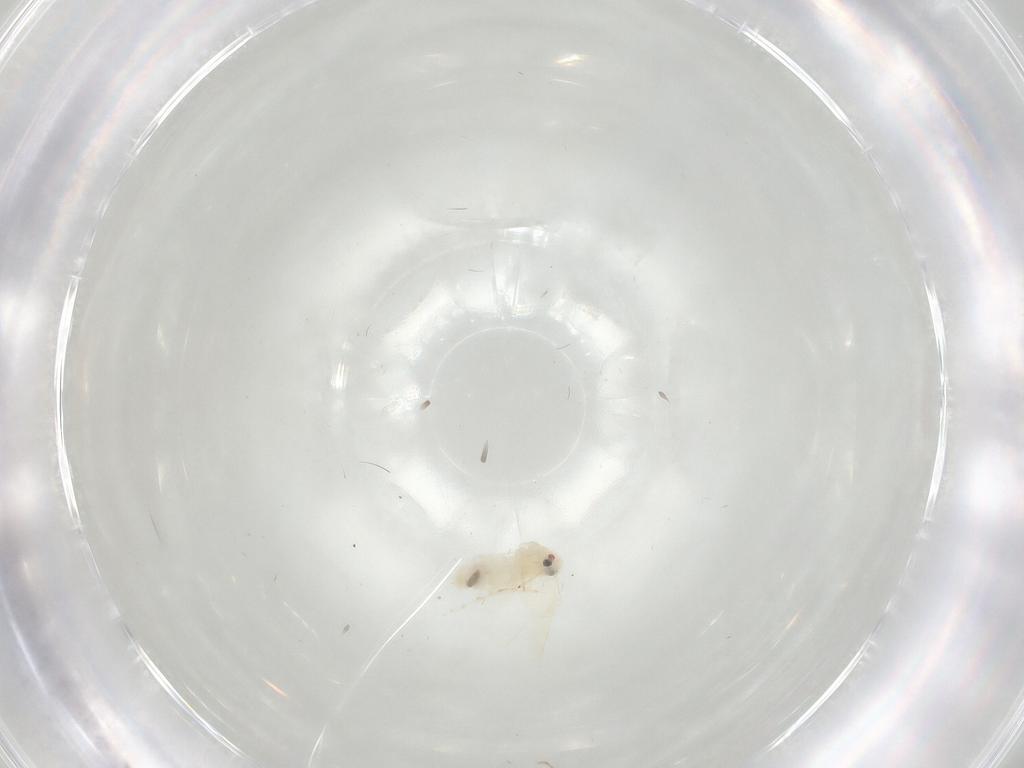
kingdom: Animalia
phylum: Arthropoda
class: Insecta
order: Hemiptera
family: Aleyrodidae
